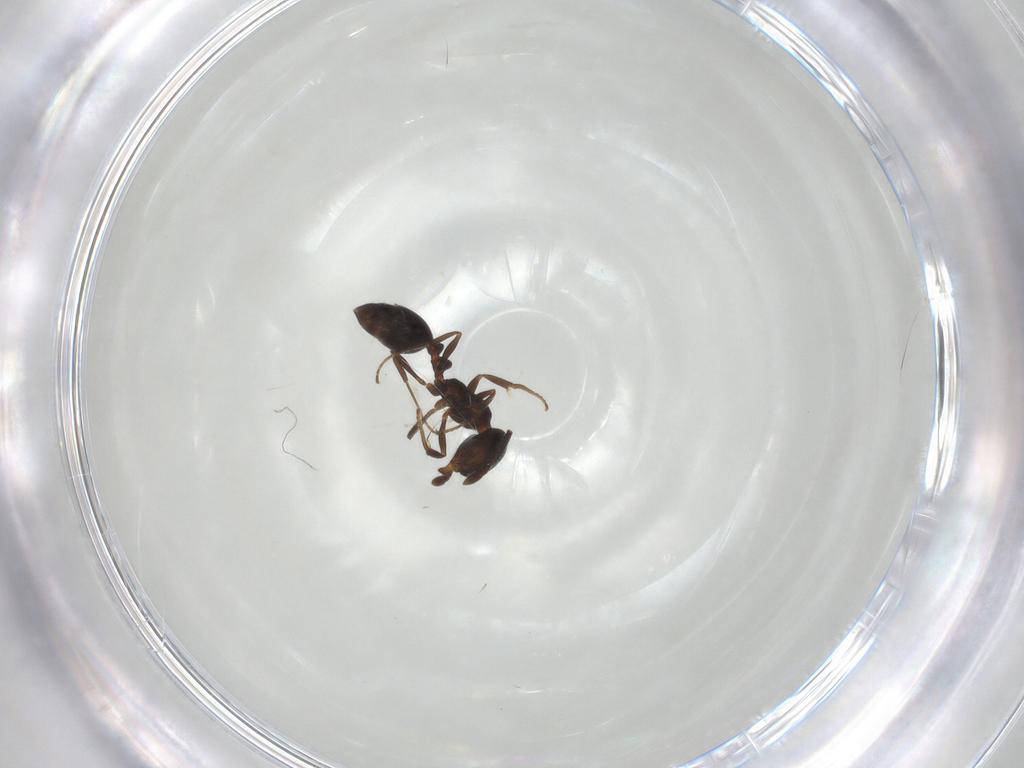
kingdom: Animalia
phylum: Arthropoda
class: Insecta
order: Hymenoptera
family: Formicidae
